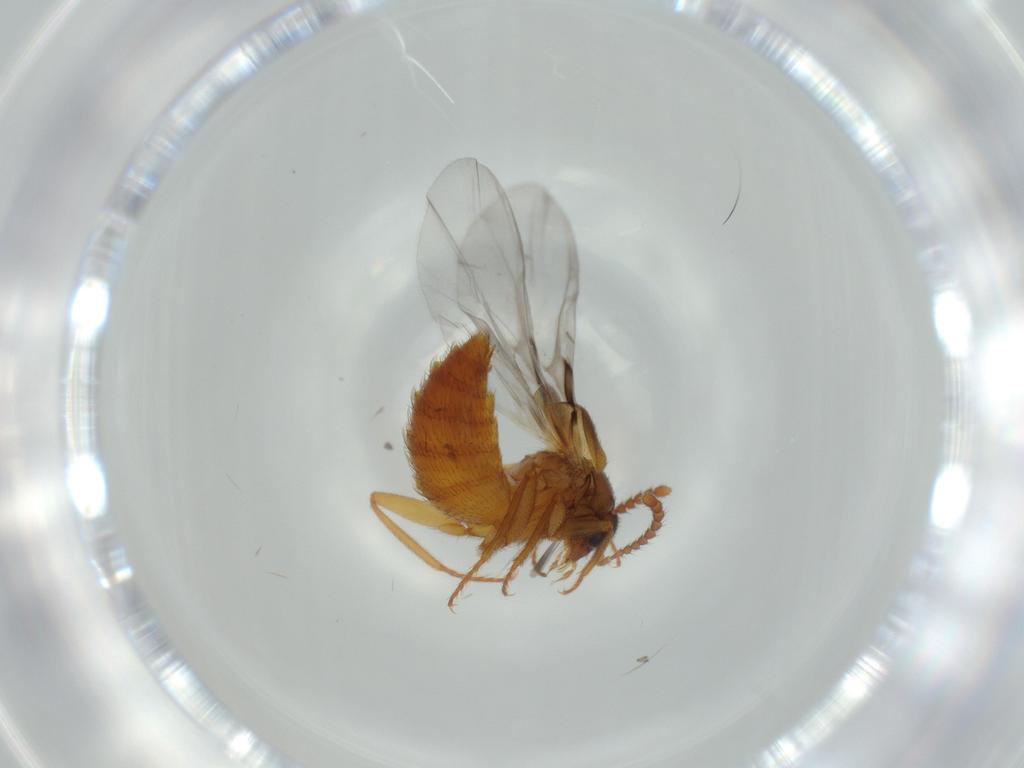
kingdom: Animalia
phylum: Arthropoda
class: Insecta
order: Coleoptera
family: Staphylinidae
